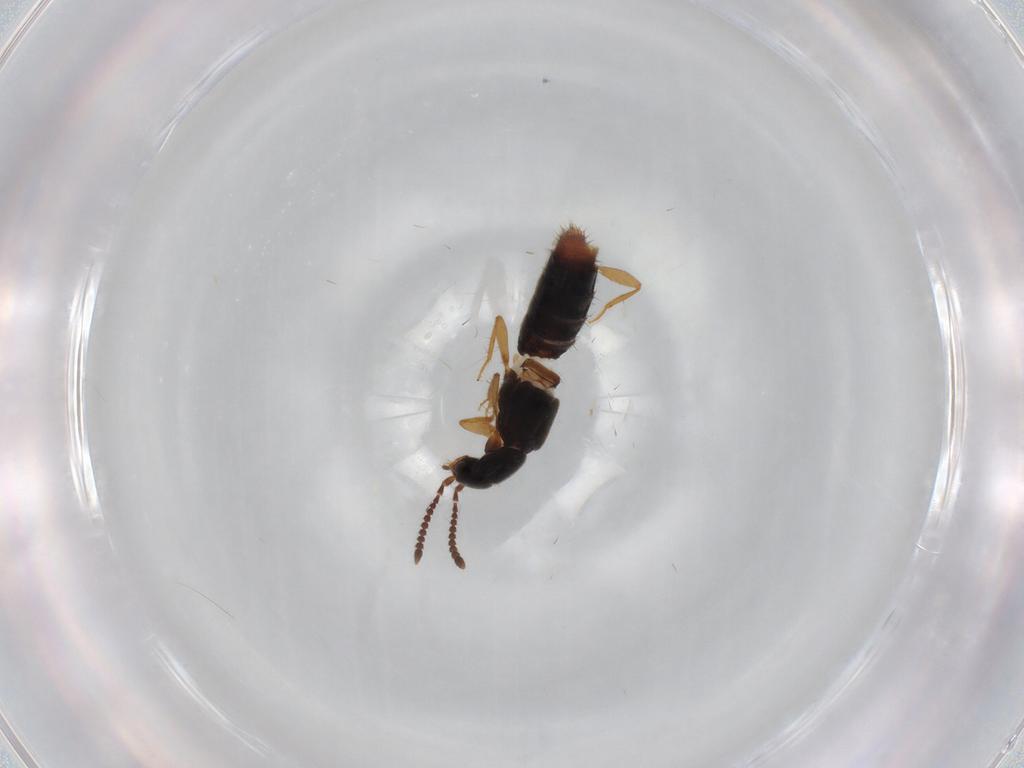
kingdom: Animalia
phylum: Arthropoda
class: Insecta
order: Coleoptera
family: Staphylinidae
